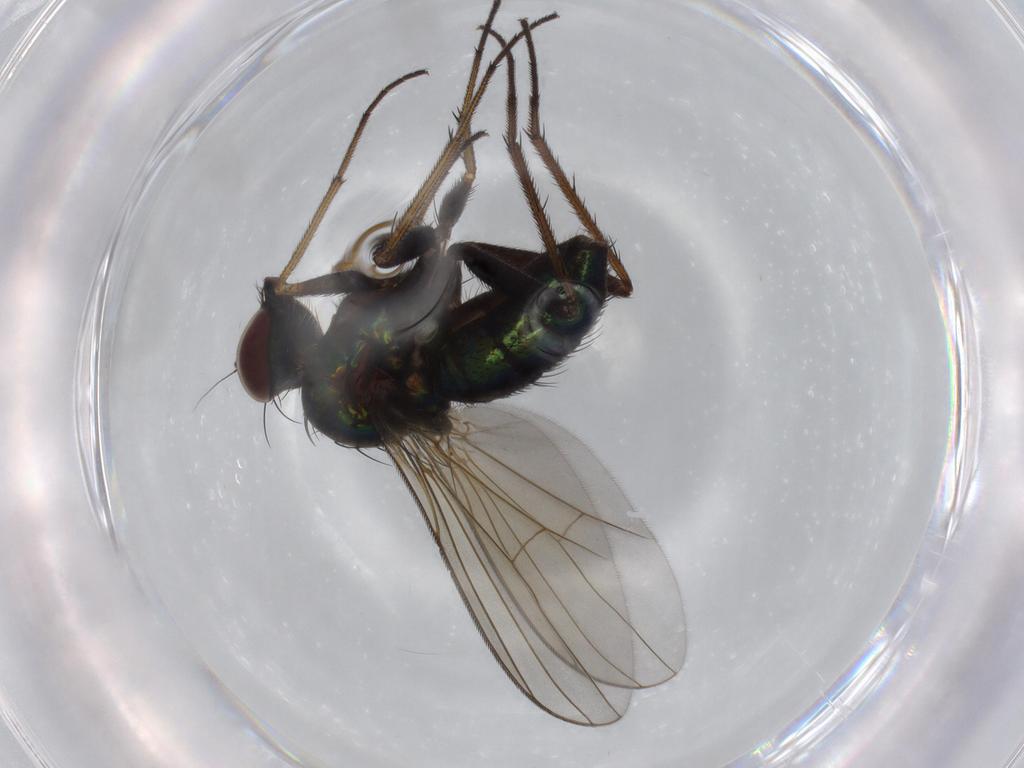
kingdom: Animalia
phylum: Arthropoda
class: Insecta
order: Diptera
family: Dolichopodidae
